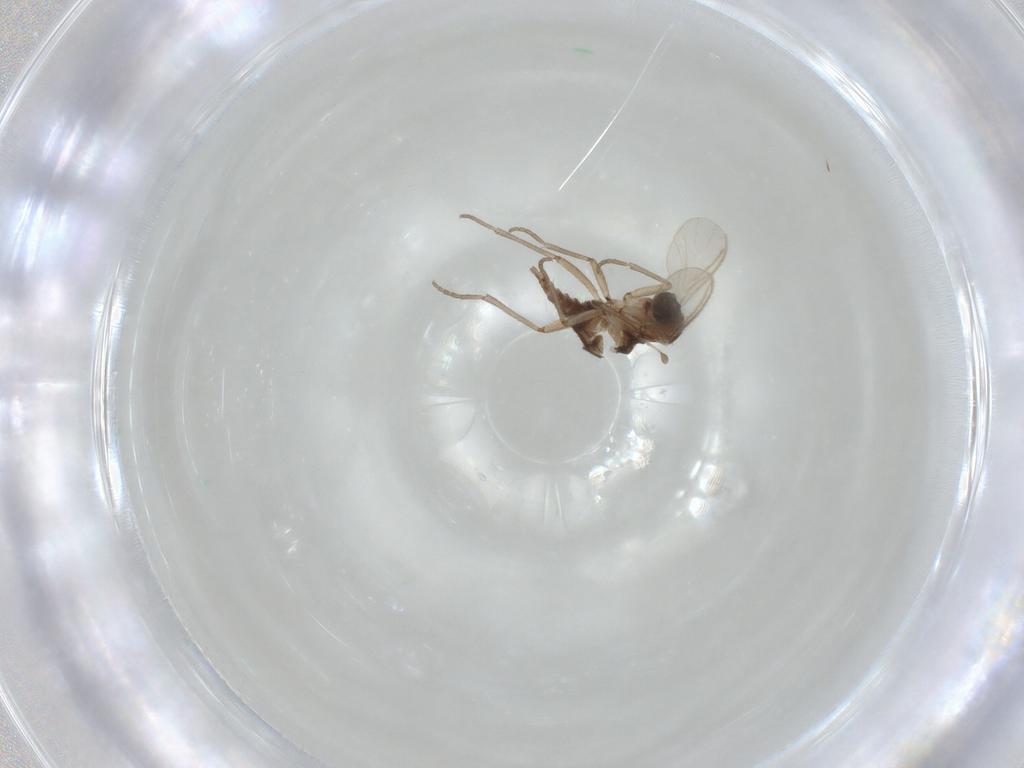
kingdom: Animalia
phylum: Arthropoda
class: Insecta
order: Diptera
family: Sciaridae
